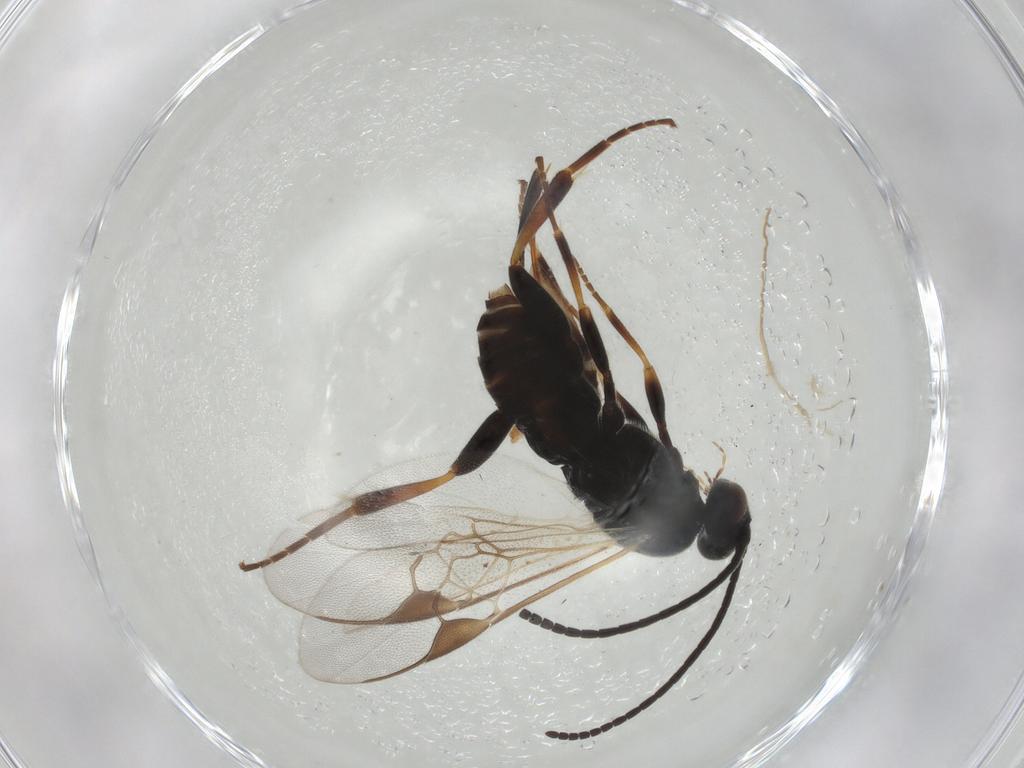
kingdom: Animalia
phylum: Arthropoda
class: Insecta
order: Hymenoptera
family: Braconidae
